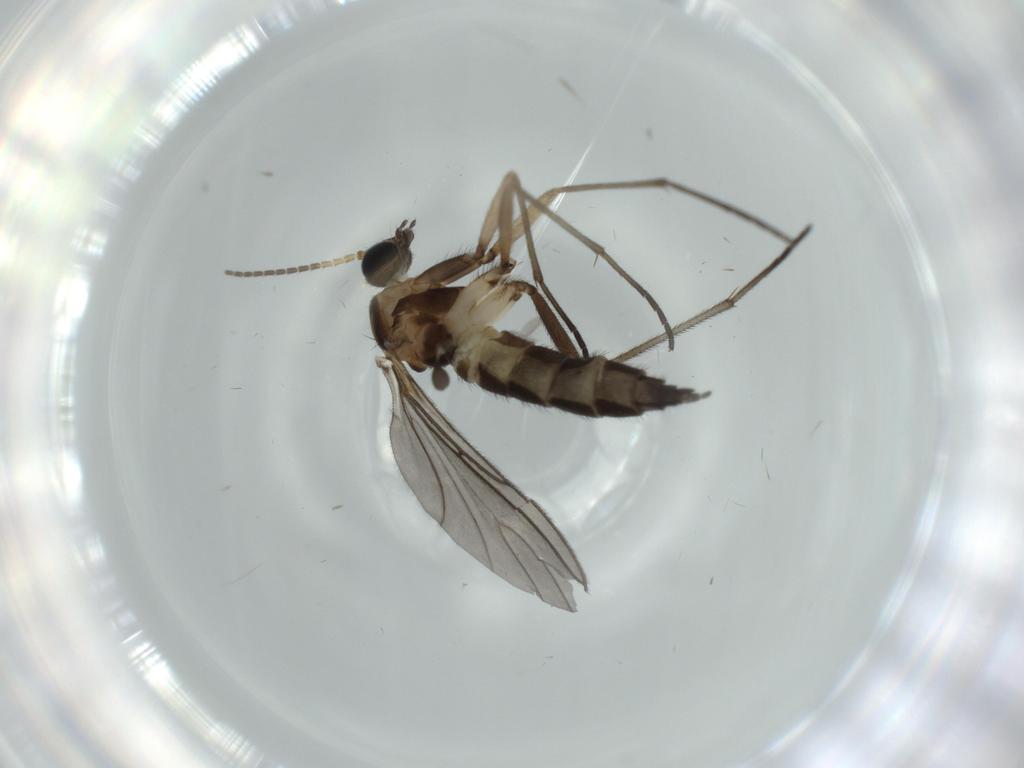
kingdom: Animalia
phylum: Arthropoda
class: Insecta
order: Diptera
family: Sciaridae
